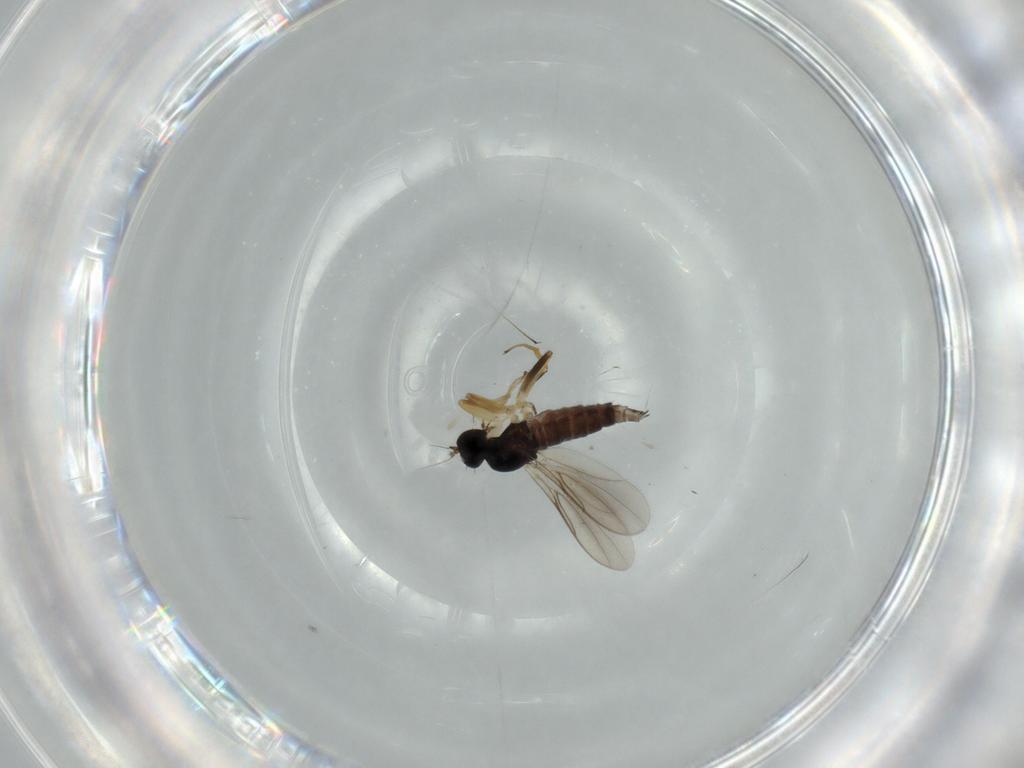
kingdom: Animalia
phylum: Arthropoda
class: Insecta
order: Diptera
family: Hybotidae
